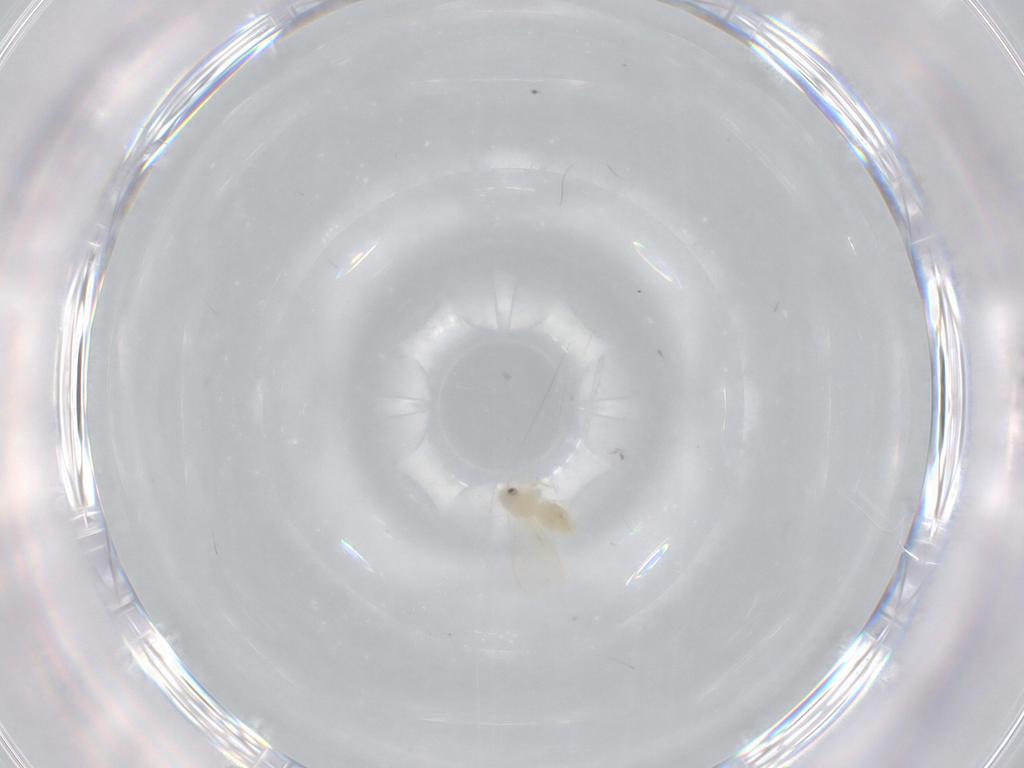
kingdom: Animalia
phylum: Arthropoda
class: Insecta
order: Hemiptera
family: Aleyrodidae
